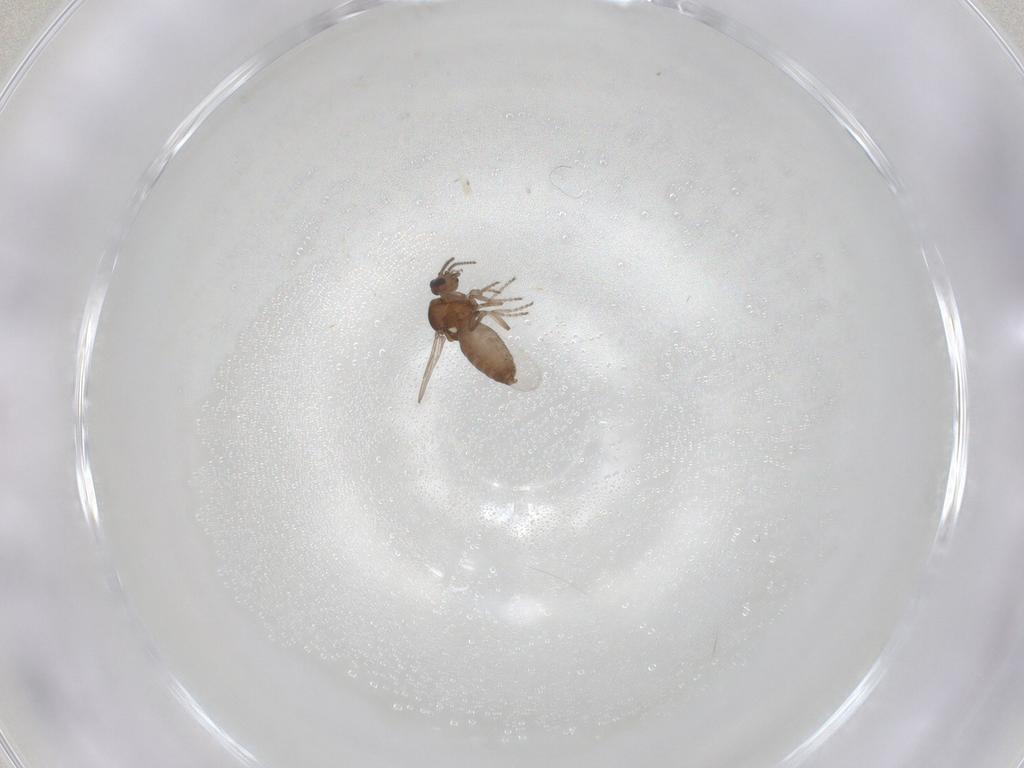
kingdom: Animalia
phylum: Arthropoda
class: Insecta
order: Diptera
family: Ceratopogonidae
